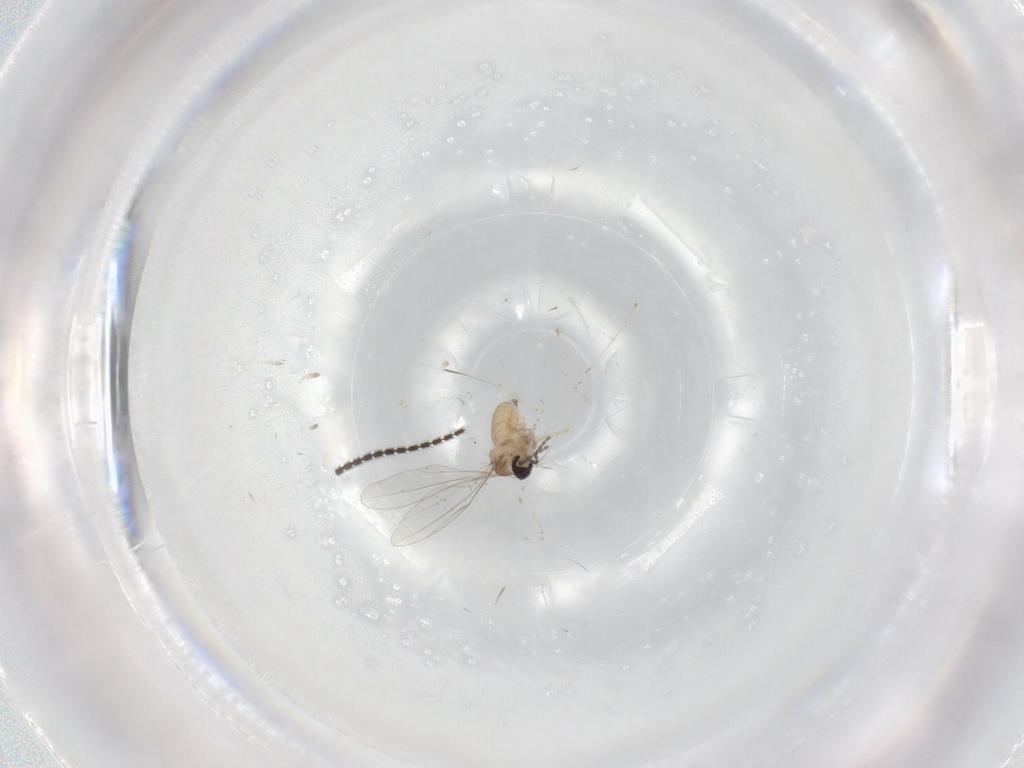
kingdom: Animalia
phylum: Arthropoda
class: Insecta
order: Diptera
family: Cecidomyiidae
